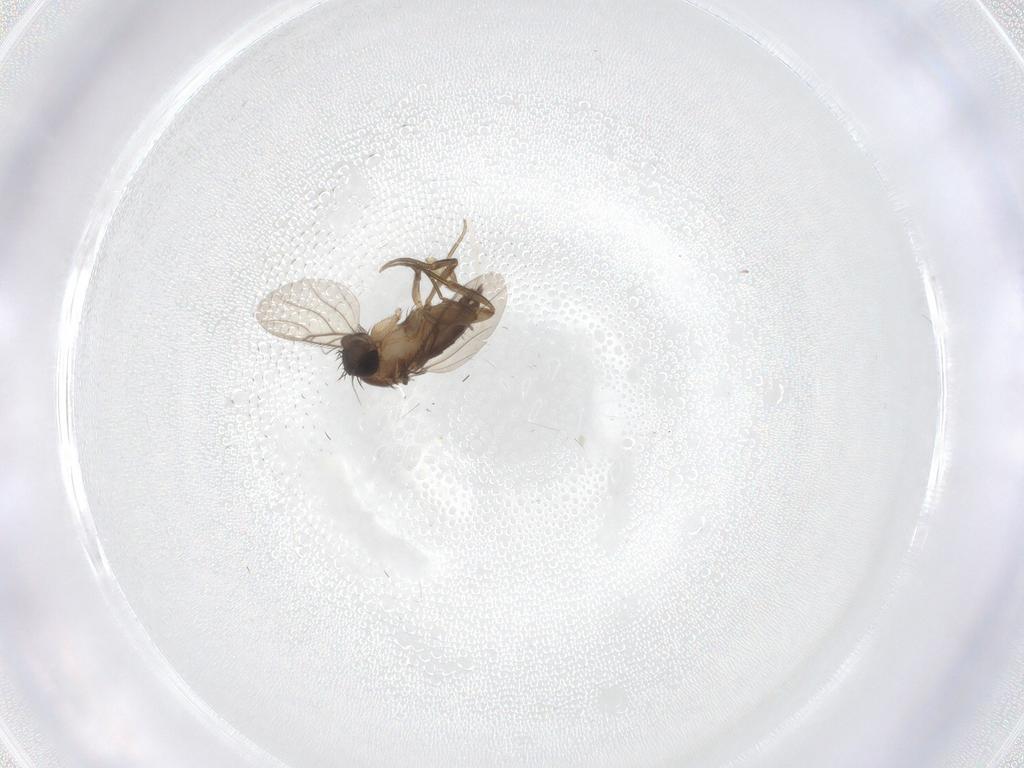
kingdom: Animalia
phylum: Arthropoda
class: Insecta
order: Diptera
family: Phoridae
